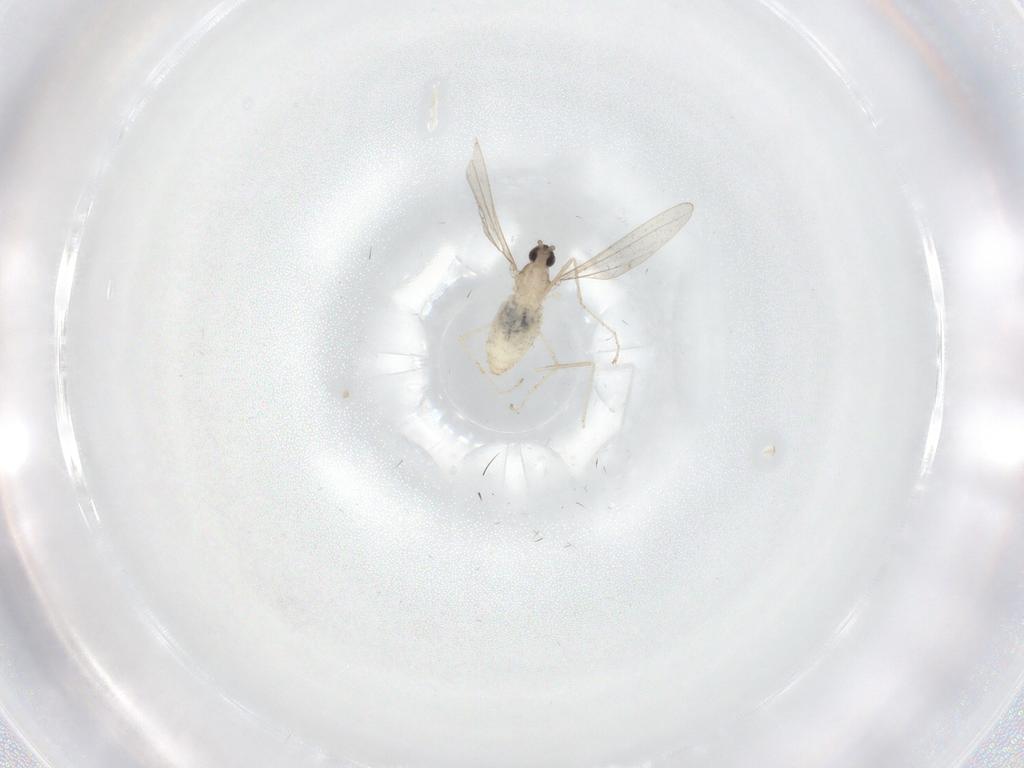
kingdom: Animalia
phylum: Arthropoda
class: Insecta
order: Diptera
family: Ceratopogonidae
